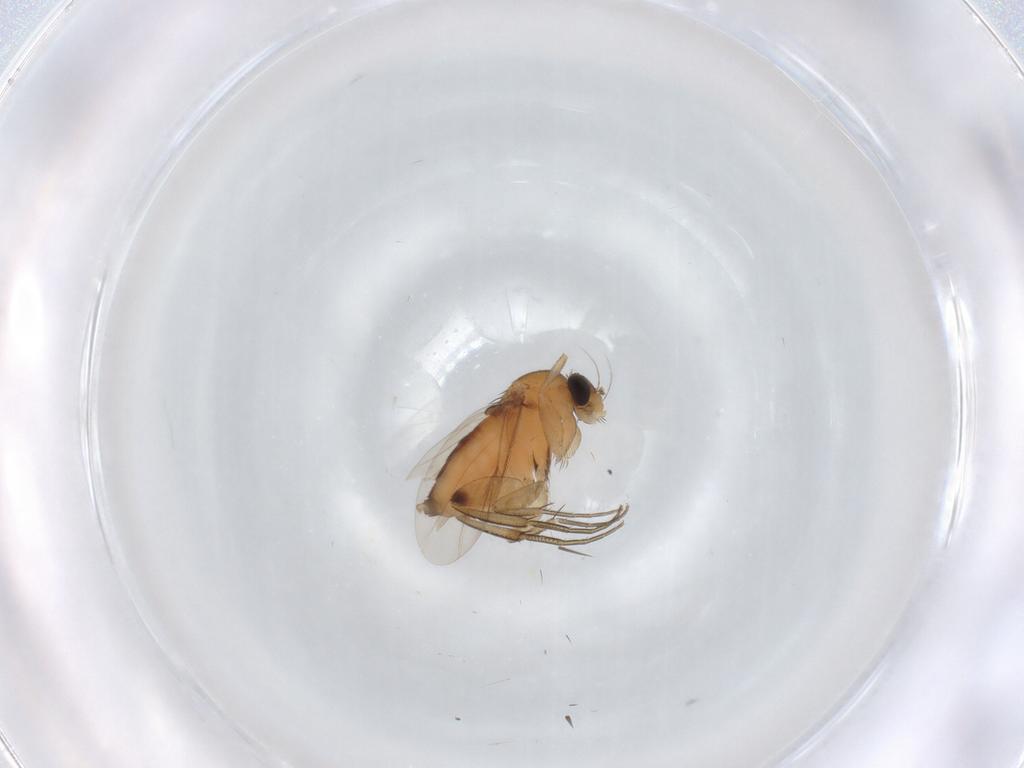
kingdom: Animalia
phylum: Arthropoda
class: Insecta
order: Diptera
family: Phoridae
